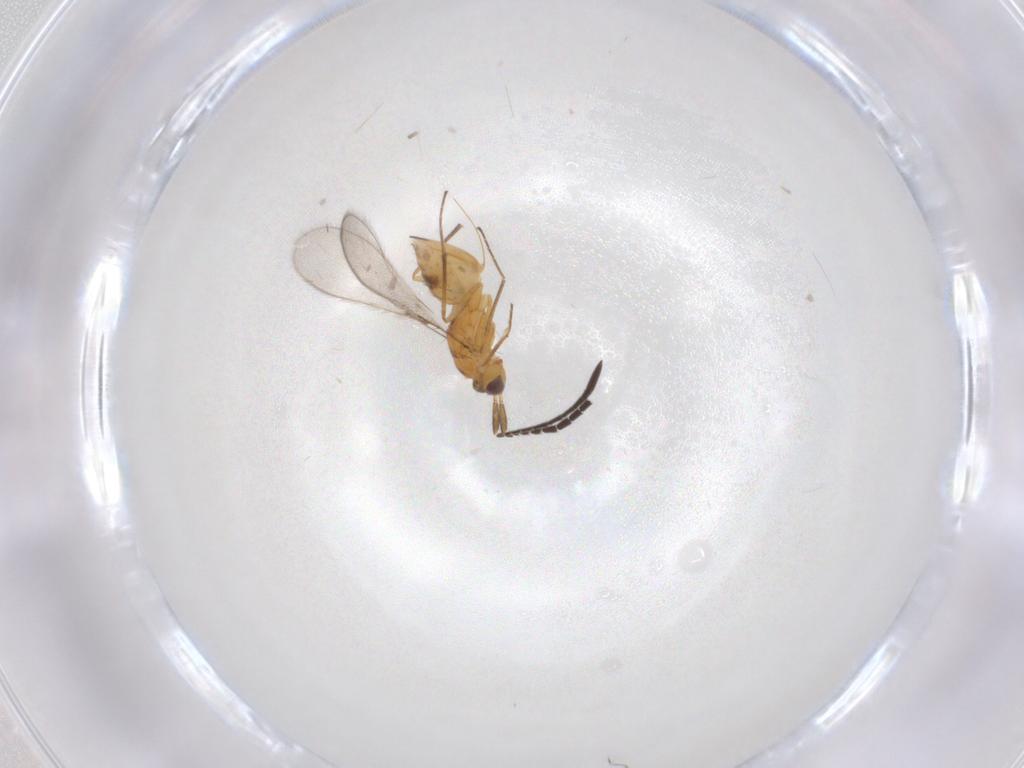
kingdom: Animalia
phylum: Arthropoda
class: Insecta
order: Hymenoptera
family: Mymaridae
